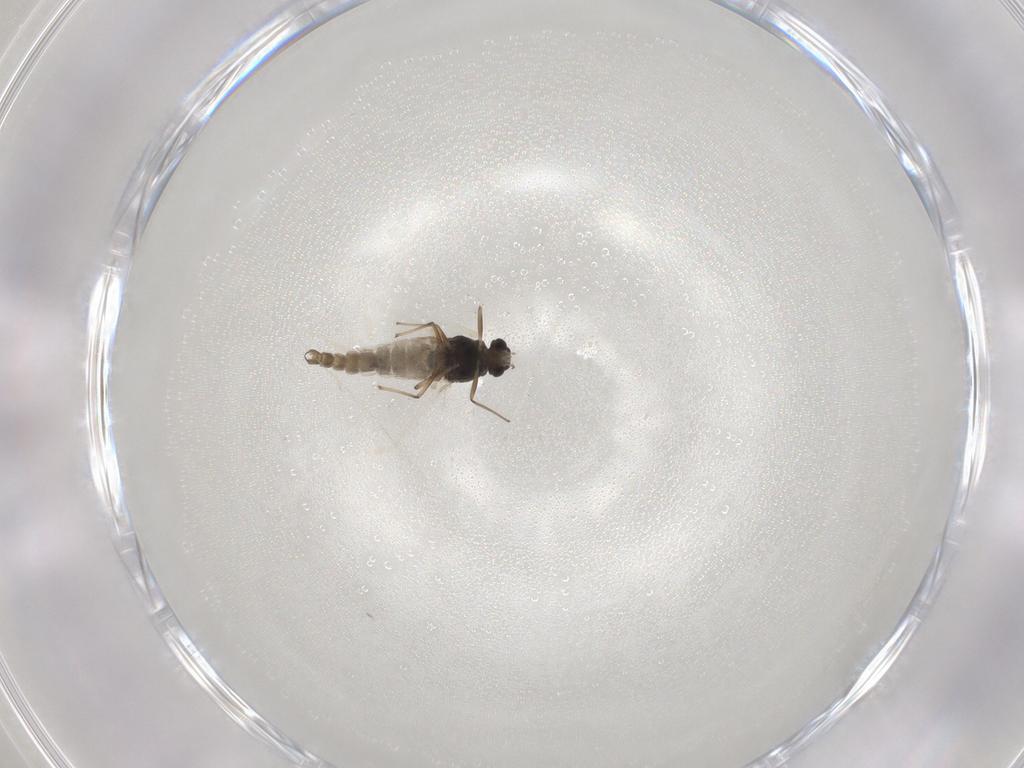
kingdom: Animalia
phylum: Arthropoda
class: Insecta
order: Diptera
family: Chironomidae
